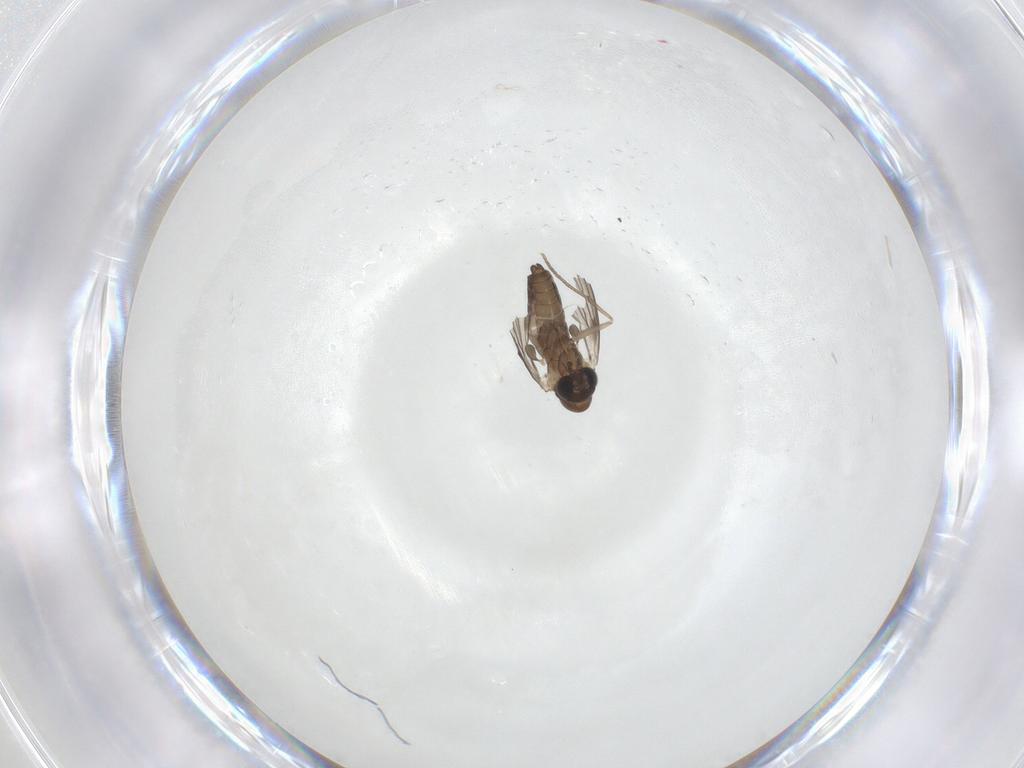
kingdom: Animalia
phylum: Arthropoda
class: Insecta
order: Diptera
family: Psychodidae
